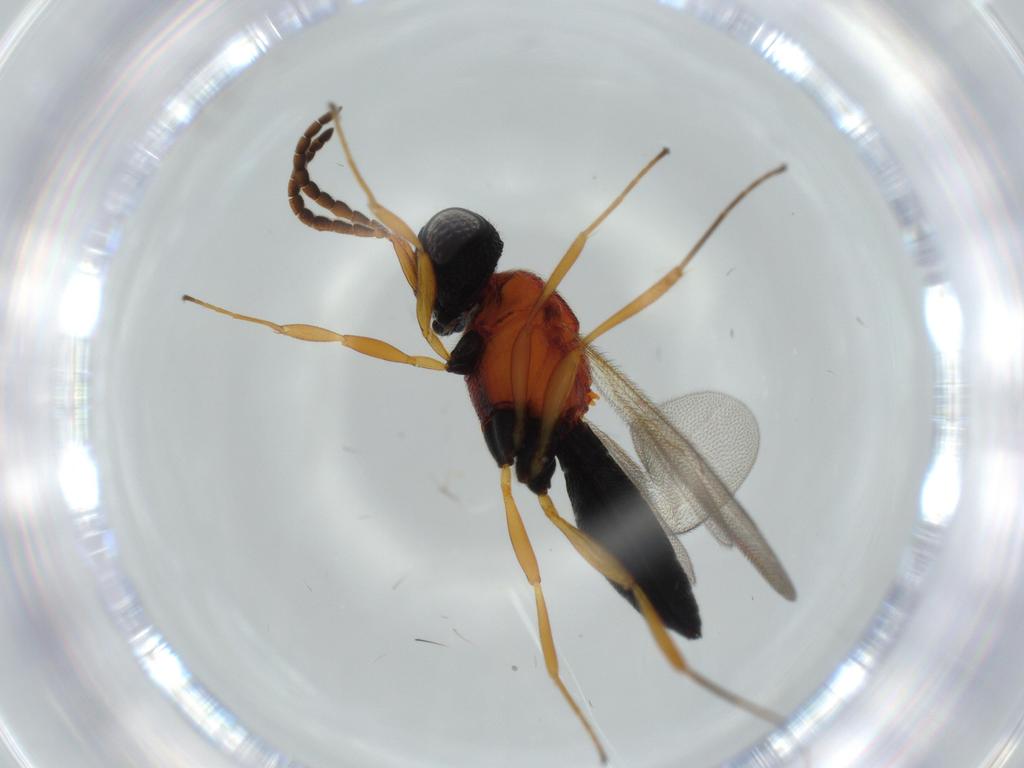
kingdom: Animalia
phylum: Arthropoda
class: Insecta
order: Hymenoptera
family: Scelionidae
